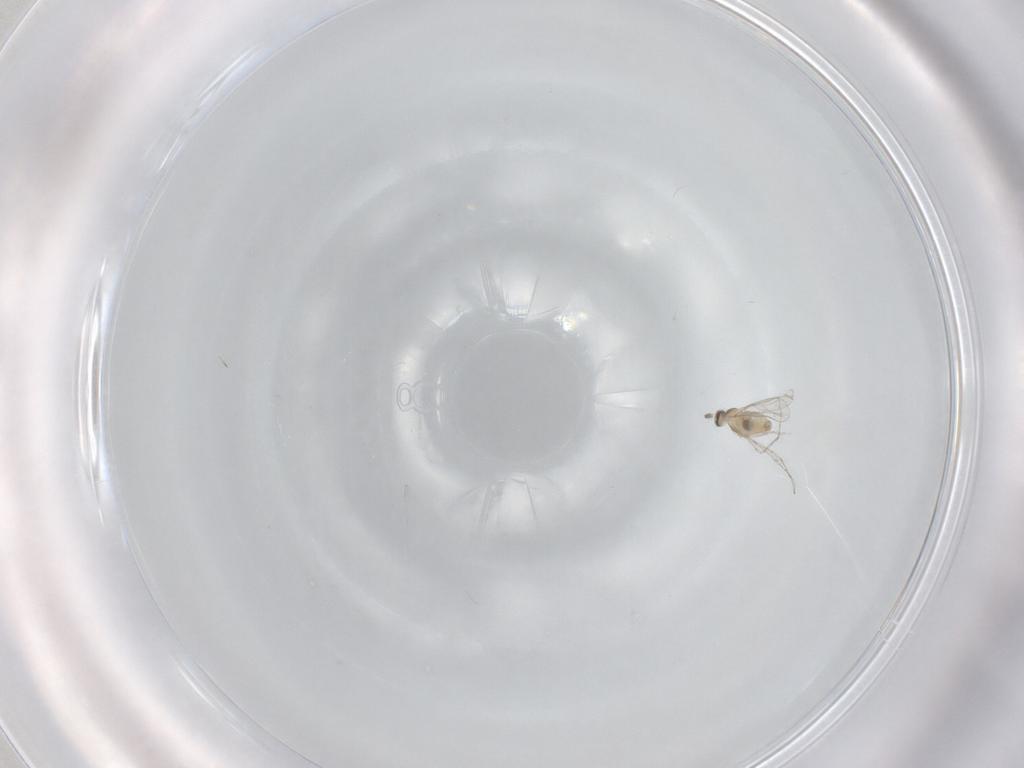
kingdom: Animalia
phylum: Arthropoda
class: Insecta
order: Diptera
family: Cecidomyiidae
